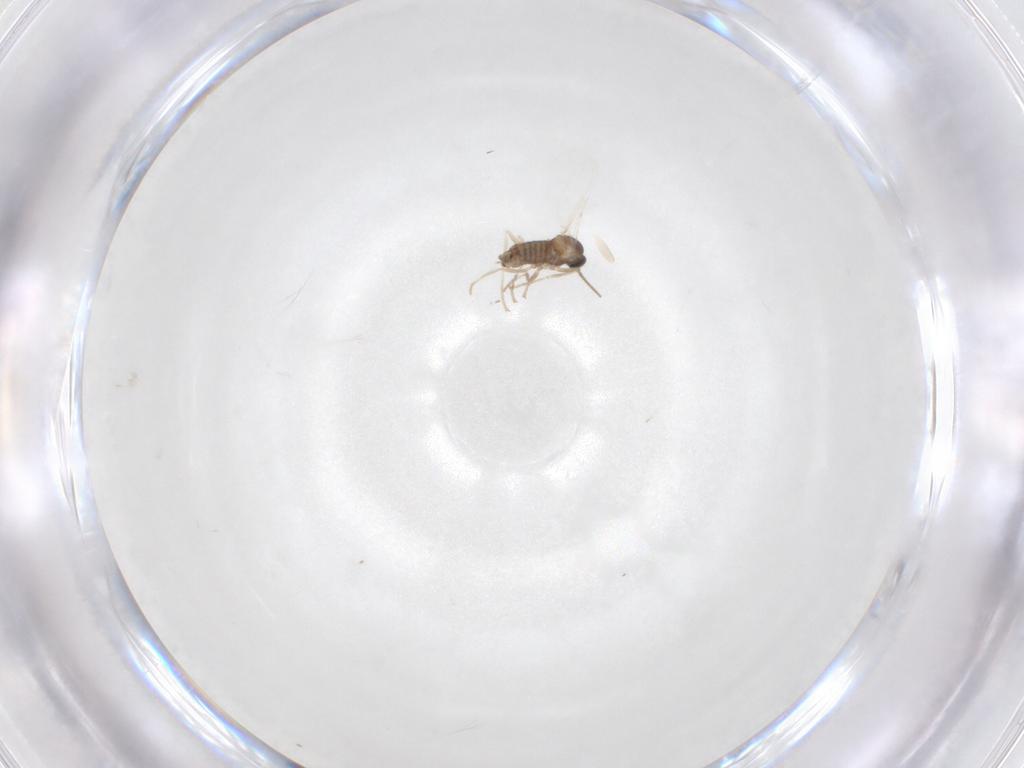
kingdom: Animalia
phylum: Arthropoda
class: Insecta
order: Diptera
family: Cecidomyiidae
